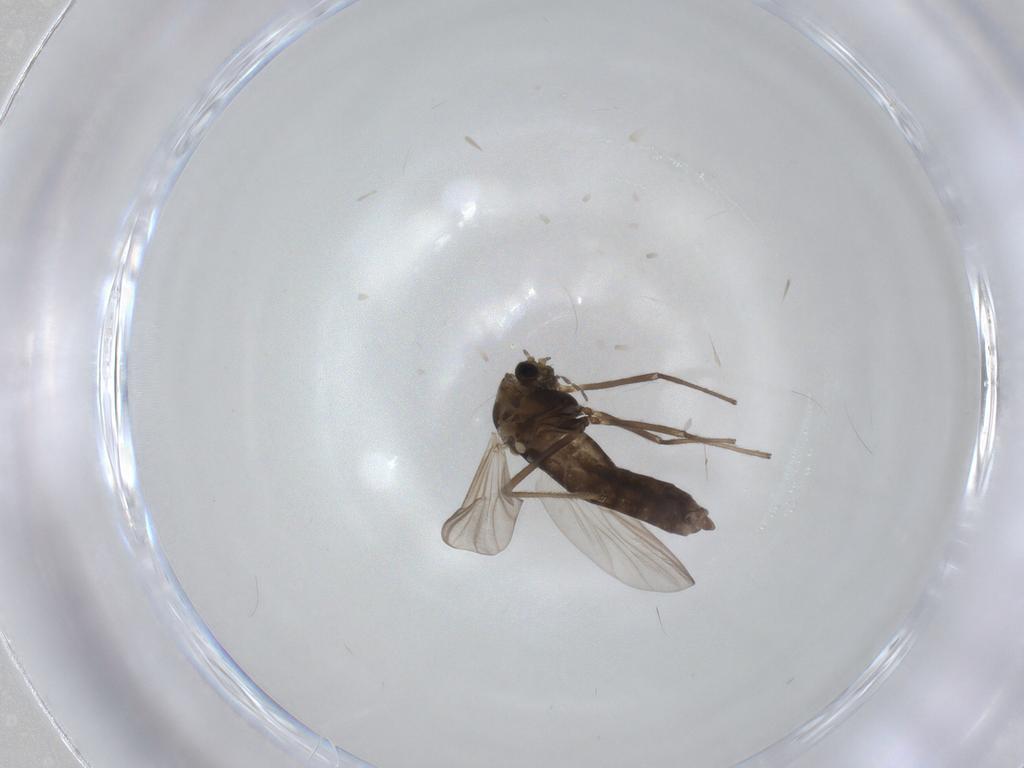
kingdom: Animalia
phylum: Arthropoda
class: Insecta
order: Diptera
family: Chironomidae
